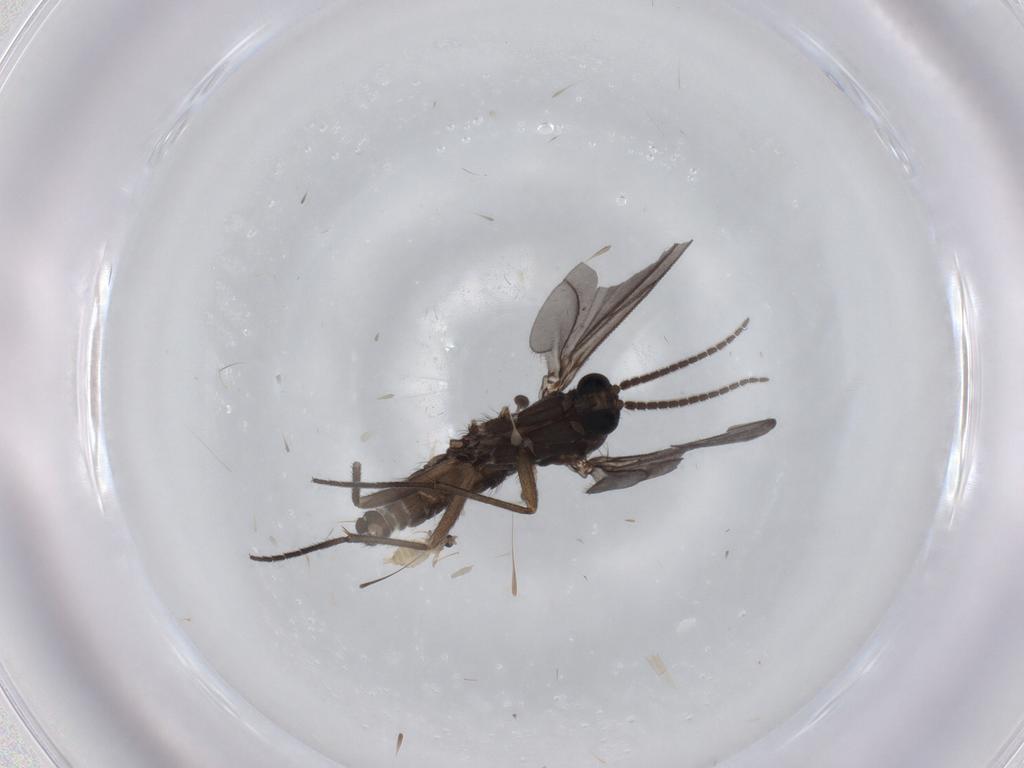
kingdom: Animalia
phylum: Arthropoda
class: Insecta
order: Diptera
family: Sciaridae
